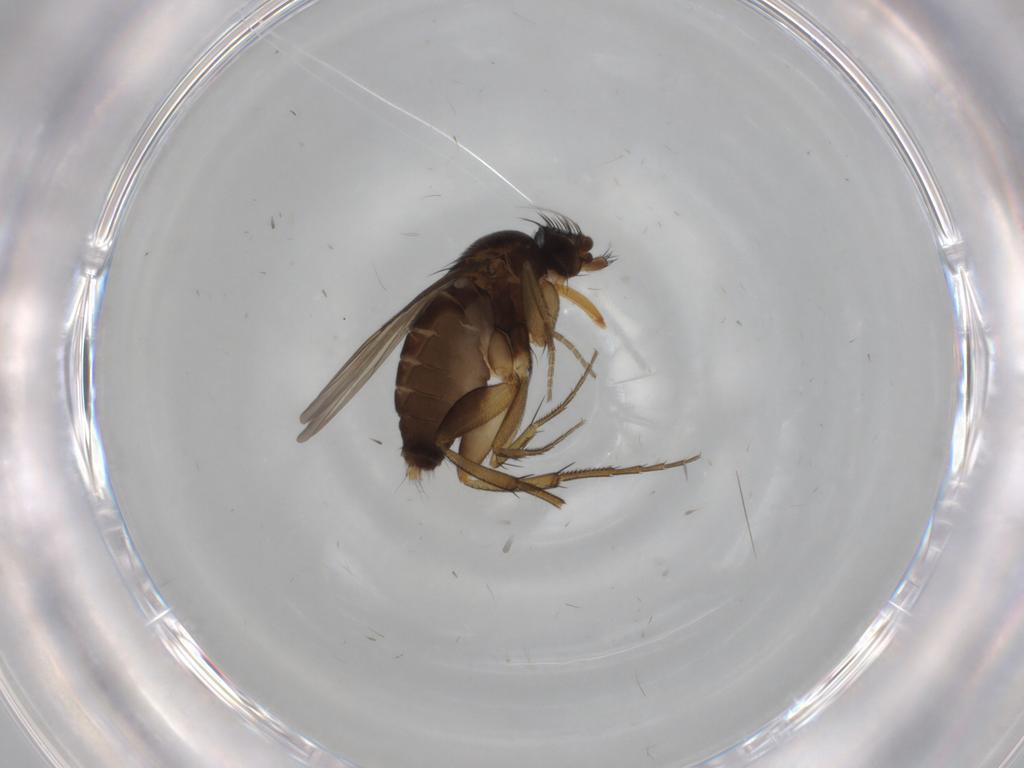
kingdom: Animalia
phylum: Arthropoda
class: Insecta
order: Diptera
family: Phoridae
